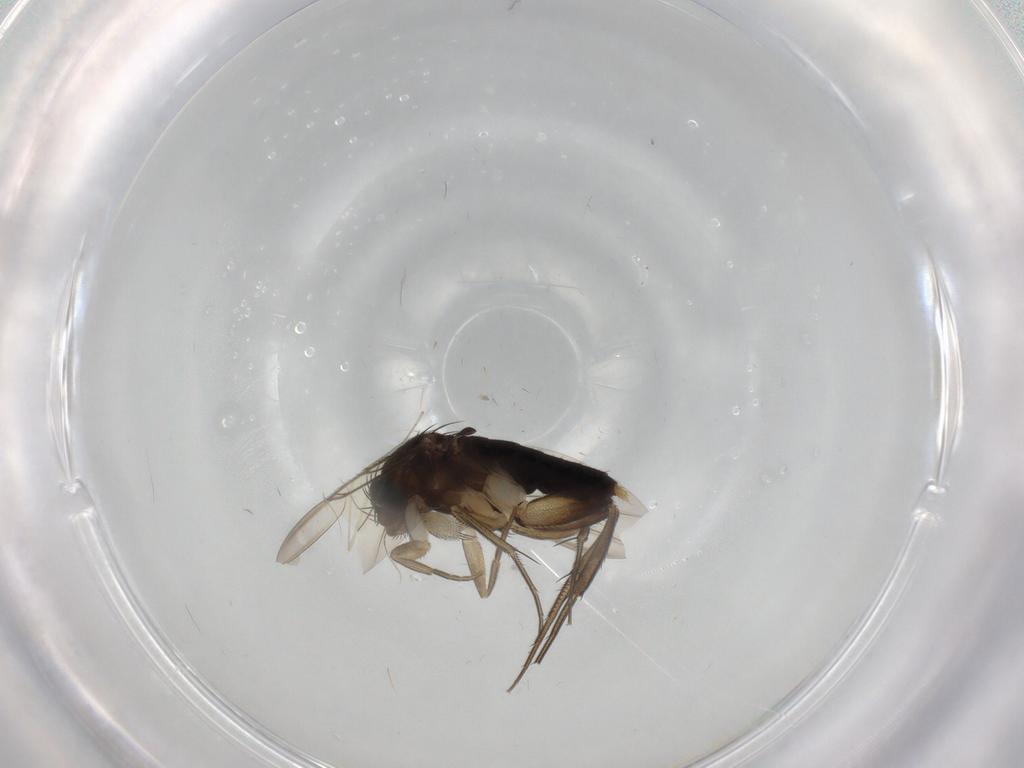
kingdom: Animalia
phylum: Arthropoda
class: Insecta
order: Diptera
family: Phoridae
